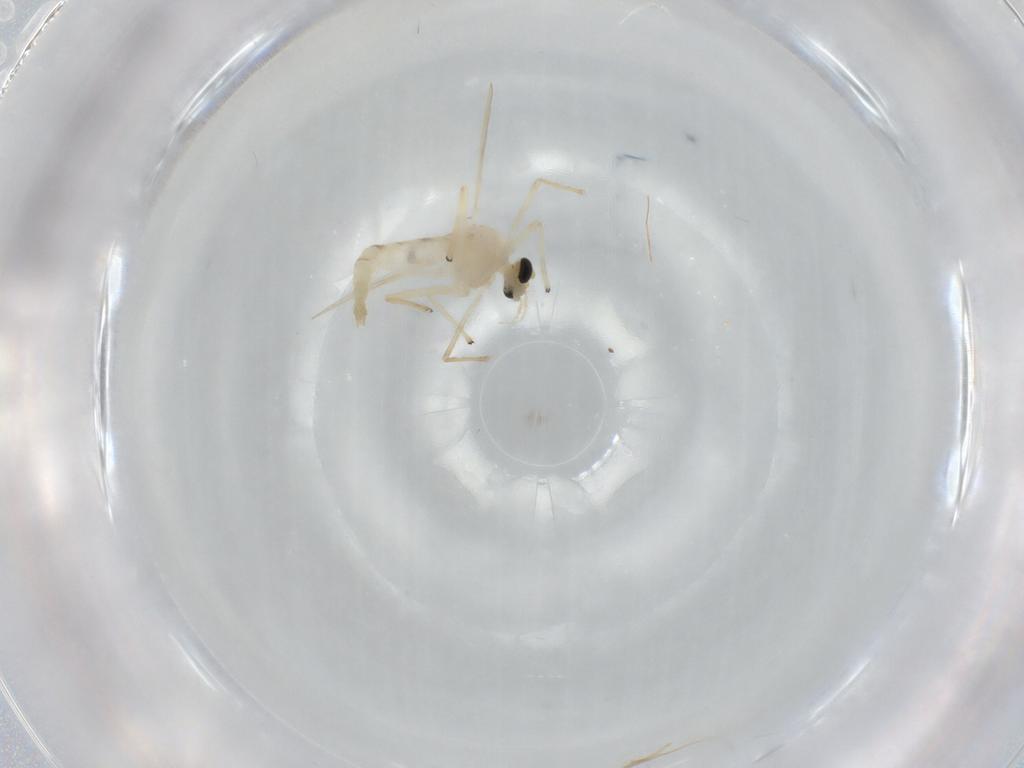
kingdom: Animalia
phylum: Arthropoda
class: Insecta
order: Diptera
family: Chironomidae
